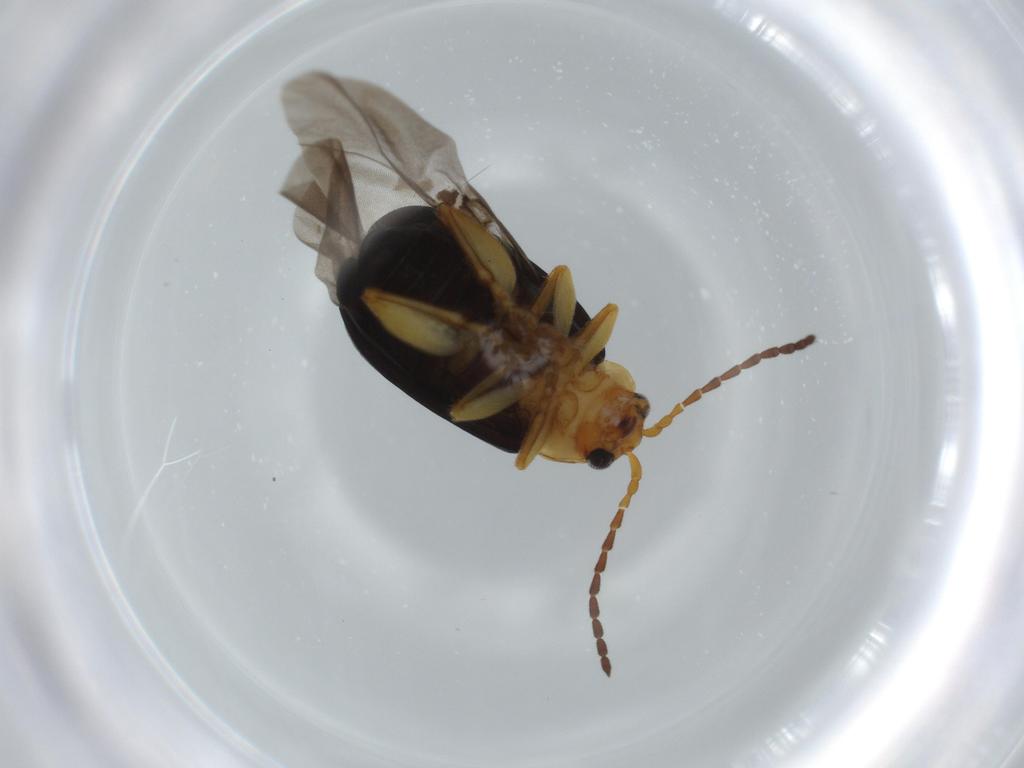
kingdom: Animalia
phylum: Arthropoda
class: Insecta
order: Coleoptera
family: Chrysomelidae
